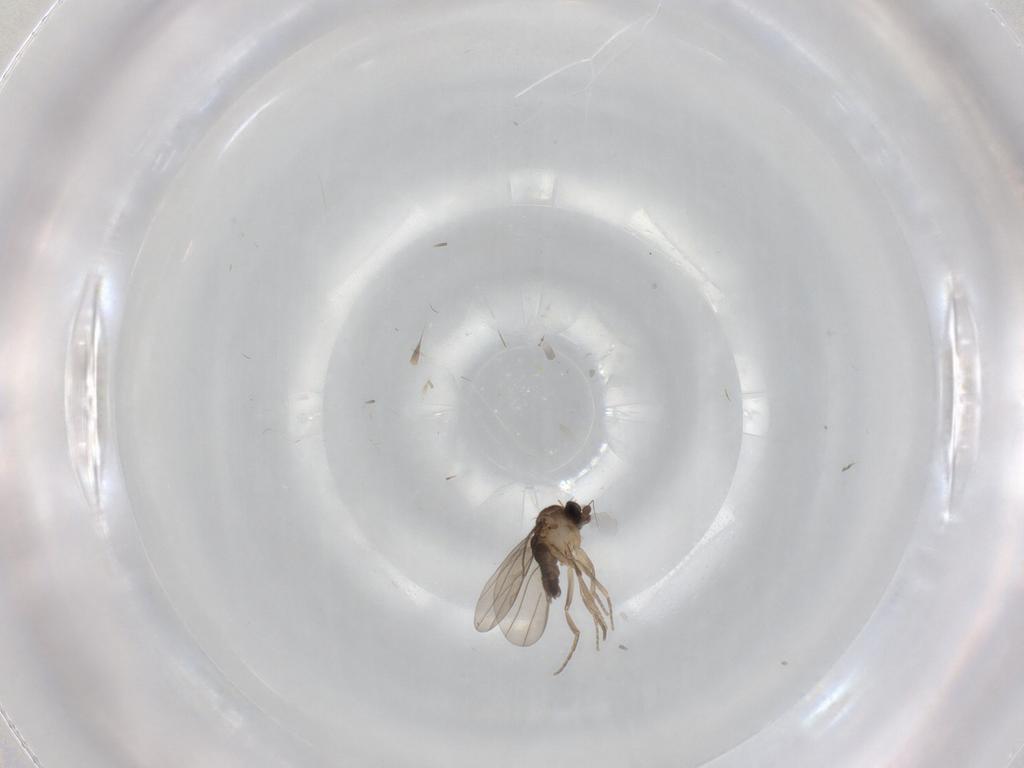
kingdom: Animalia
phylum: Arthropoda
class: Insecta
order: Diptera
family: Phoridae
